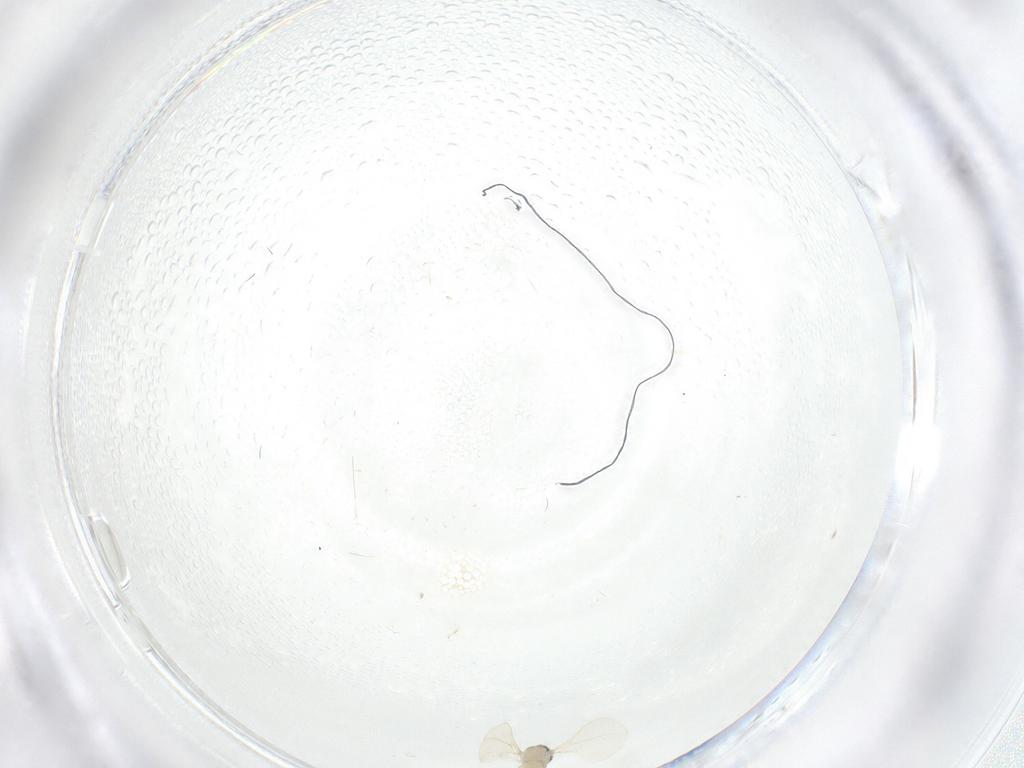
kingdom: Animalia
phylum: Arthropoda
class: Insecta
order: Diptera
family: Cecidomyiidae
